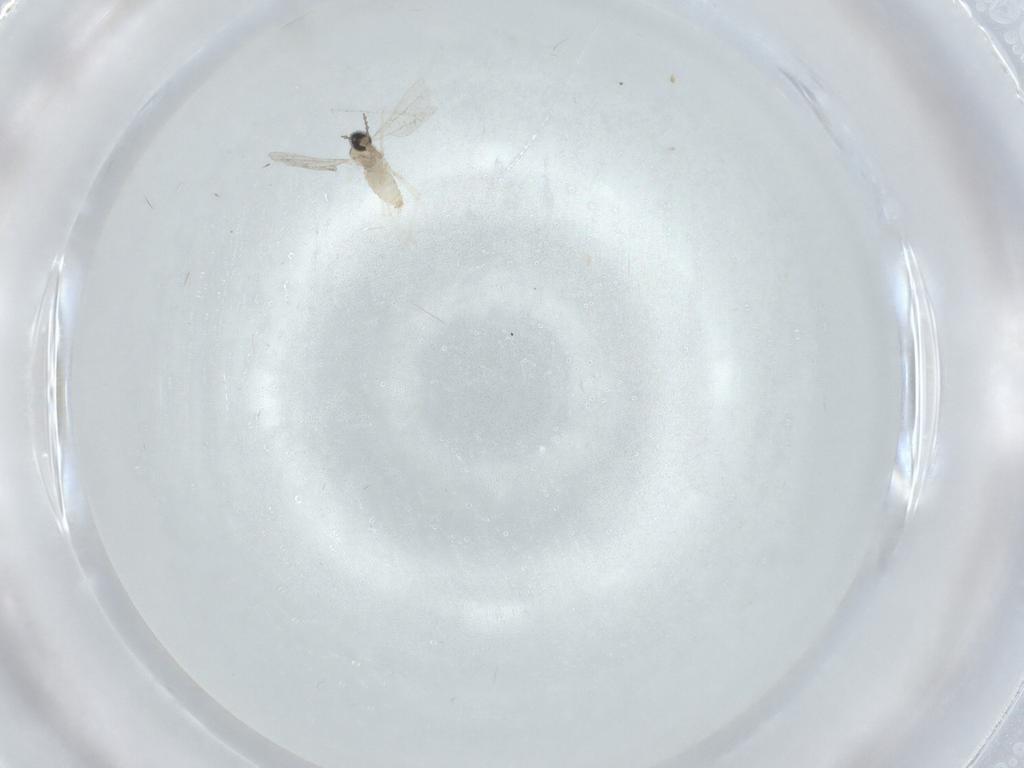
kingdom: Animalia
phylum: Arthropoda
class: Insecta
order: Diptera
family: Cecidomyiidae
